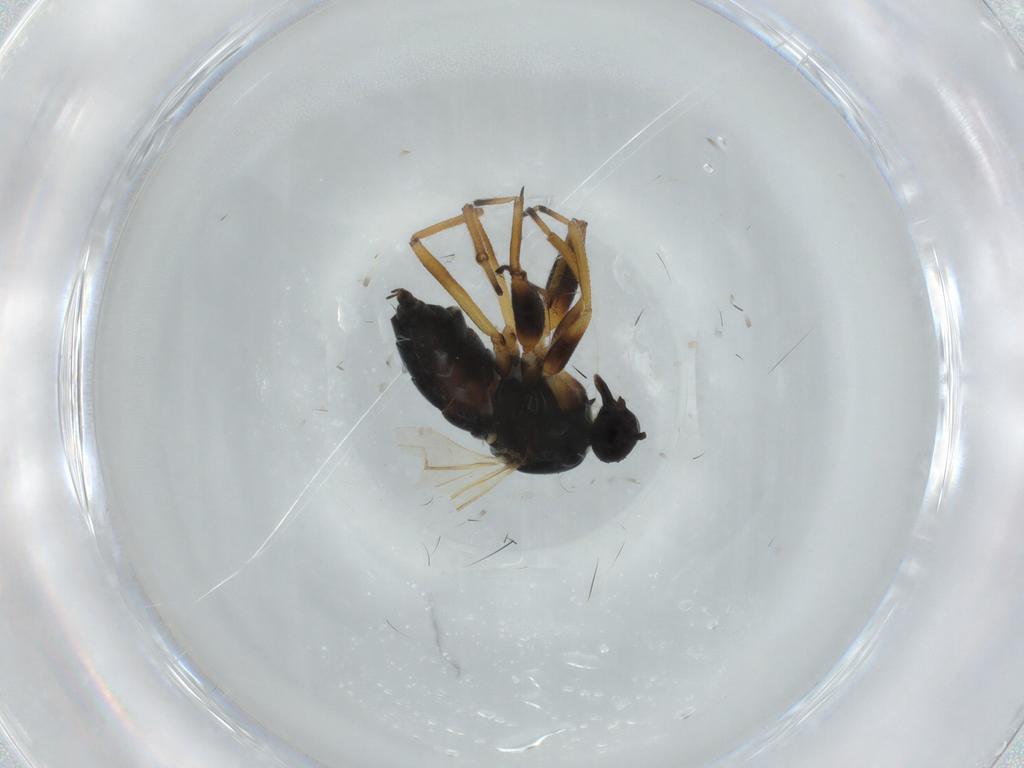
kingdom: Animalia
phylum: Arthropoda
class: Insecta
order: Diptera
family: Hybotidae
